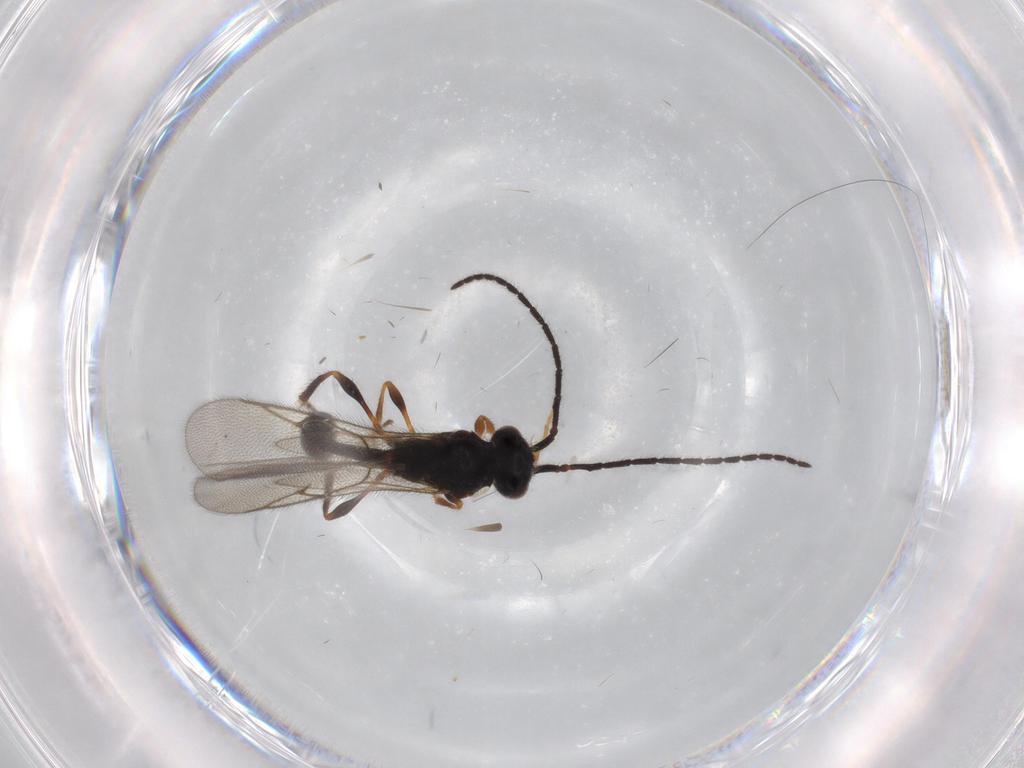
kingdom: Animalia
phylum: Arthropoda
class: Insecta
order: Hymenoptera
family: Diapriidae
